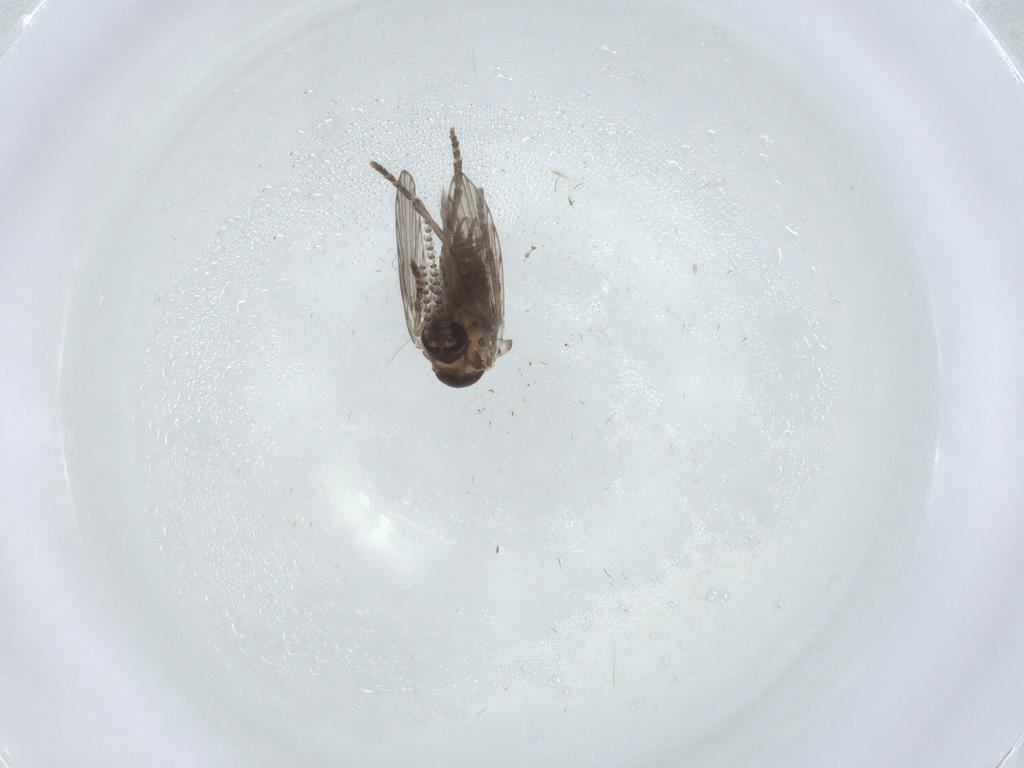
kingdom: Animalia
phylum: Arthropoda
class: Insecta
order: Diptera
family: Psychodidae
